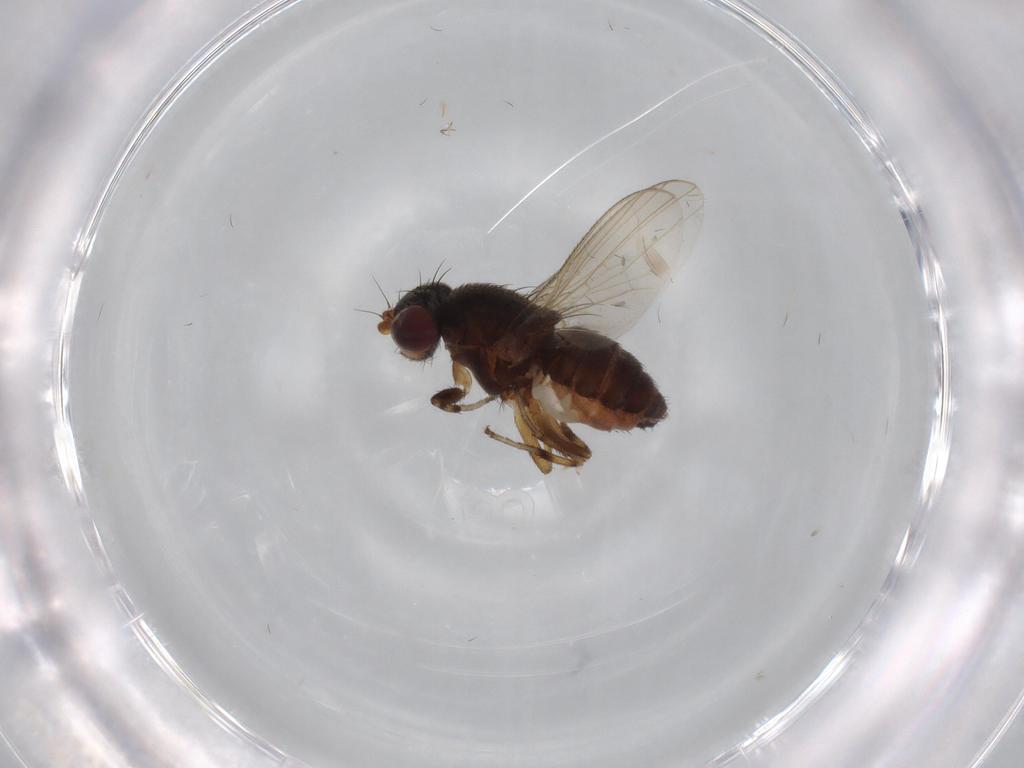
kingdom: Animalia
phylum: Arthropoda
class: Insecta
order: Diptera
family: Heleomyzidae
